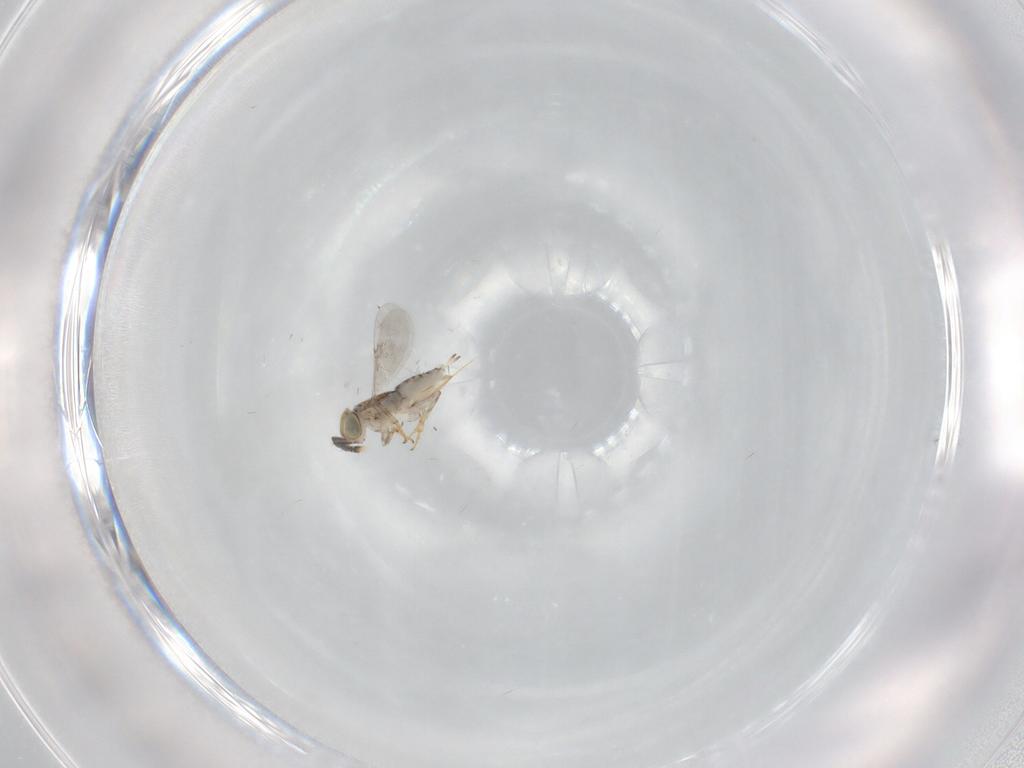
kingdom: Animalia
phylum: Arthropoda
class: Insecta
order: Hymenoptera
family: Encyrtidae
